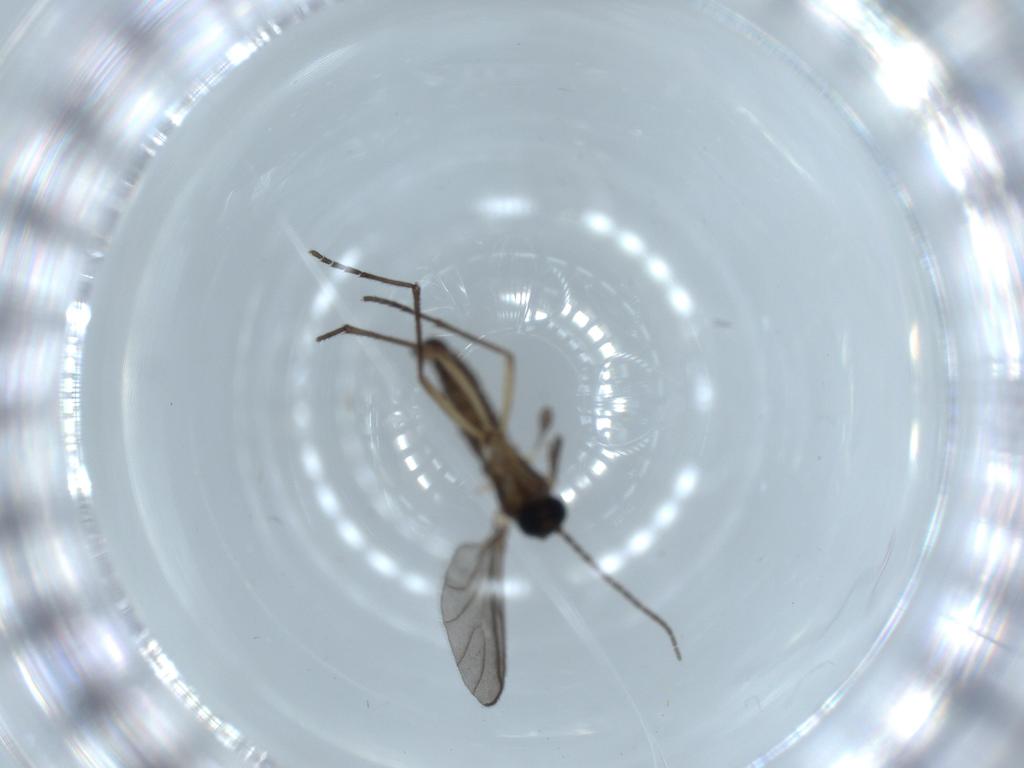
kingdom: Animalia
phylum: Arthropoda
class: Insecta
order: Diptera
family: Sciaridae
